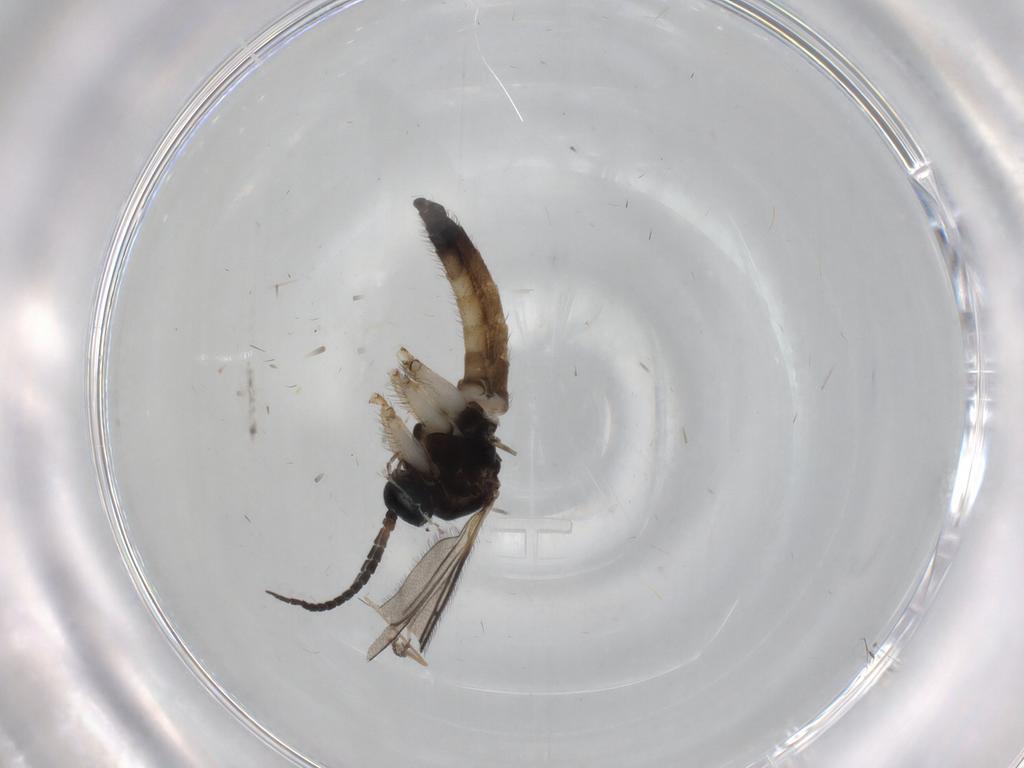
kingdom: Animalia
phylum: Arthropoda
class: Insecta
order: Diptera
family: Sciaridae
